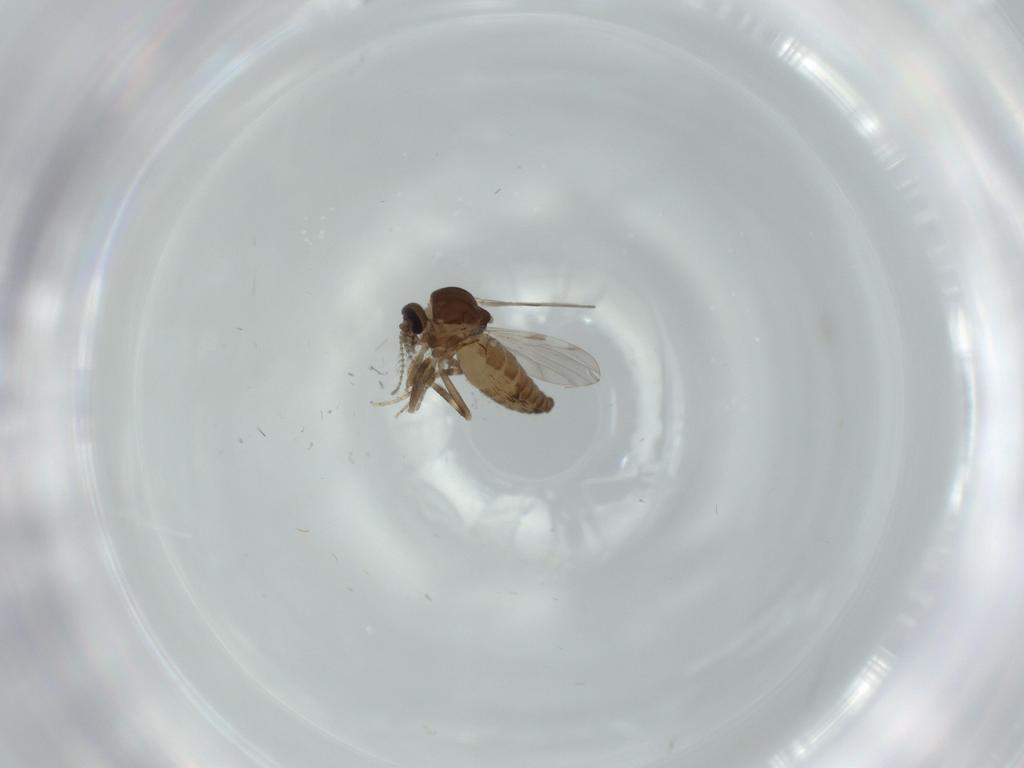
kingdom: Animalia
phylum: Arthropoda
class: Insecta
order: Diptera
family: Ceratopogonidae
